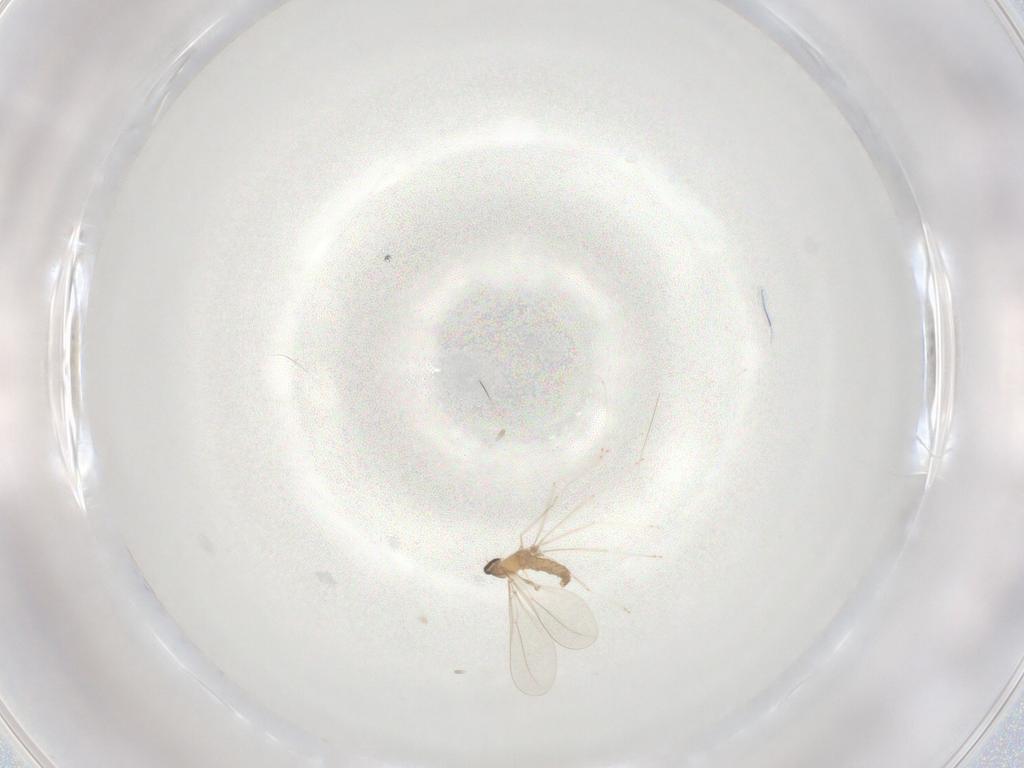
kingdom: Animalia
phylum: Arthropoda
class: Insecta
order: Diptera
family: Cecidomyiidae
